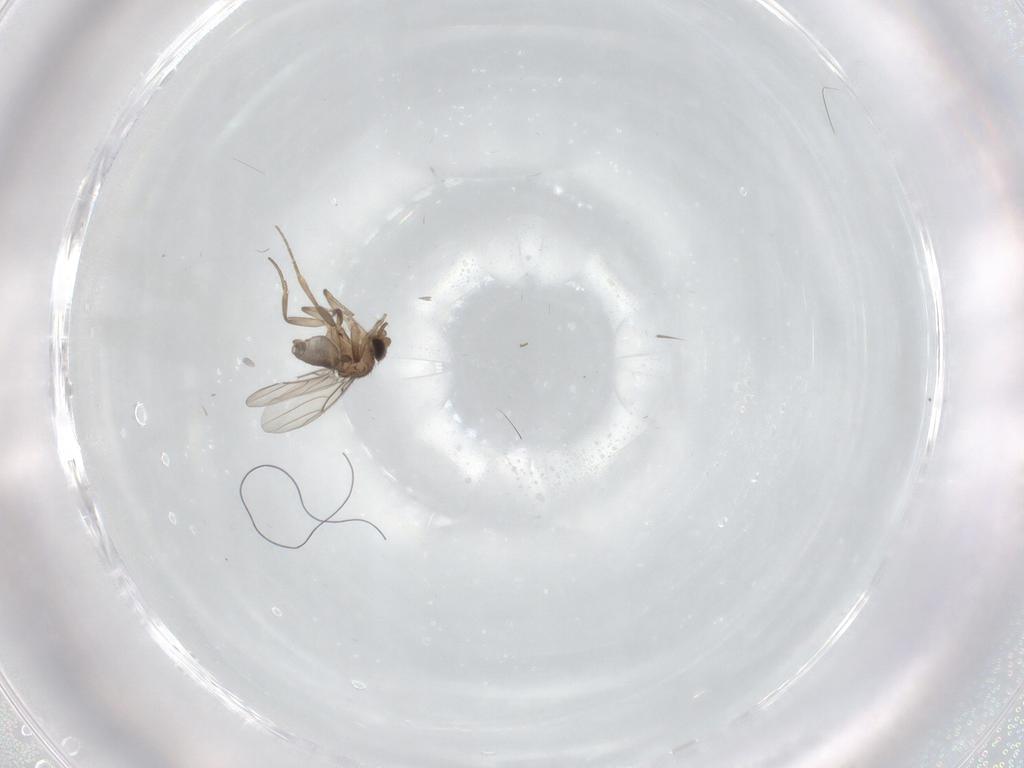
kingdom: Animalia
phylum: Arthropoda
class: Insecta
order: Diptera
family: Phoridae
